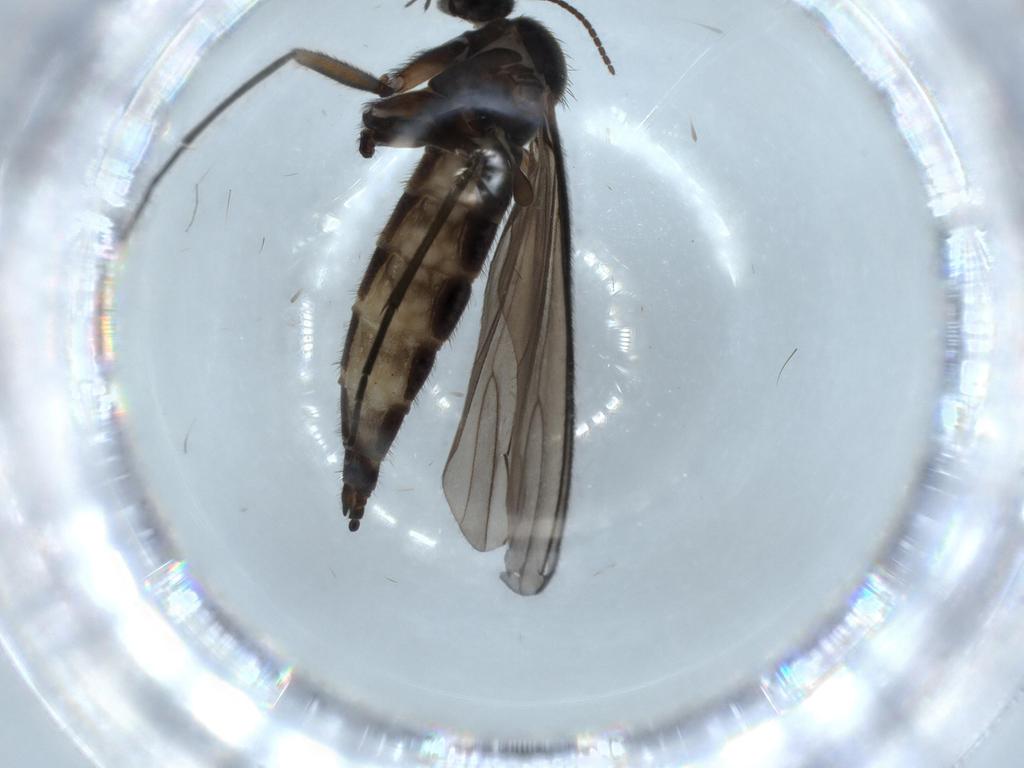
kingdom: Animalia
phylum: Arthropoda
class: Insecta
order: Diptera
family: Sciaridae
